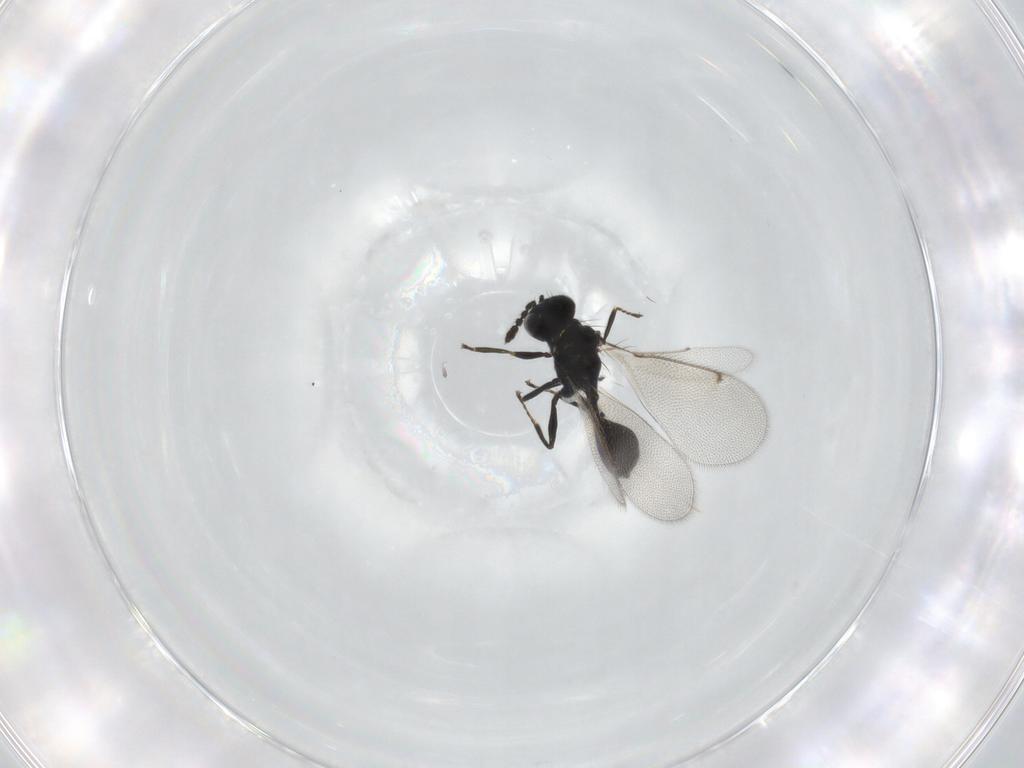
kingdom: Animalia
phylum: Arthropoda
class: Insecta
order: Hymenoptera
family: Eulophidae
